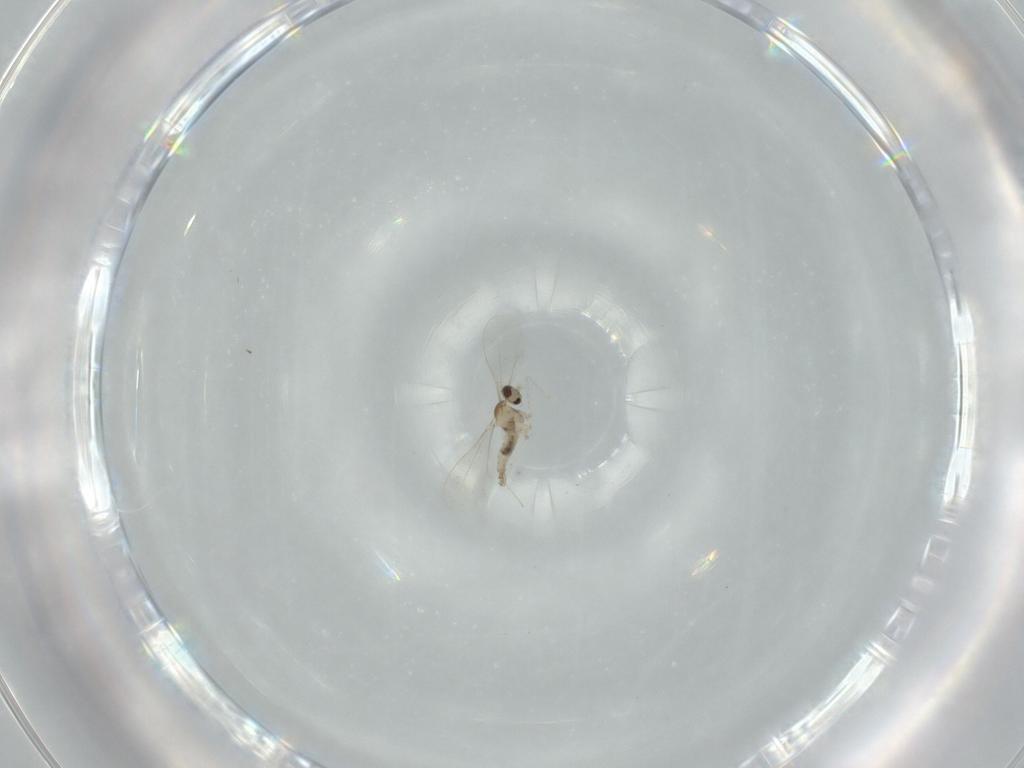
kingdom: Animalia
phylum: Arthropoda
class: Insecta
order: Diptera
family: Cecidomyiidae
